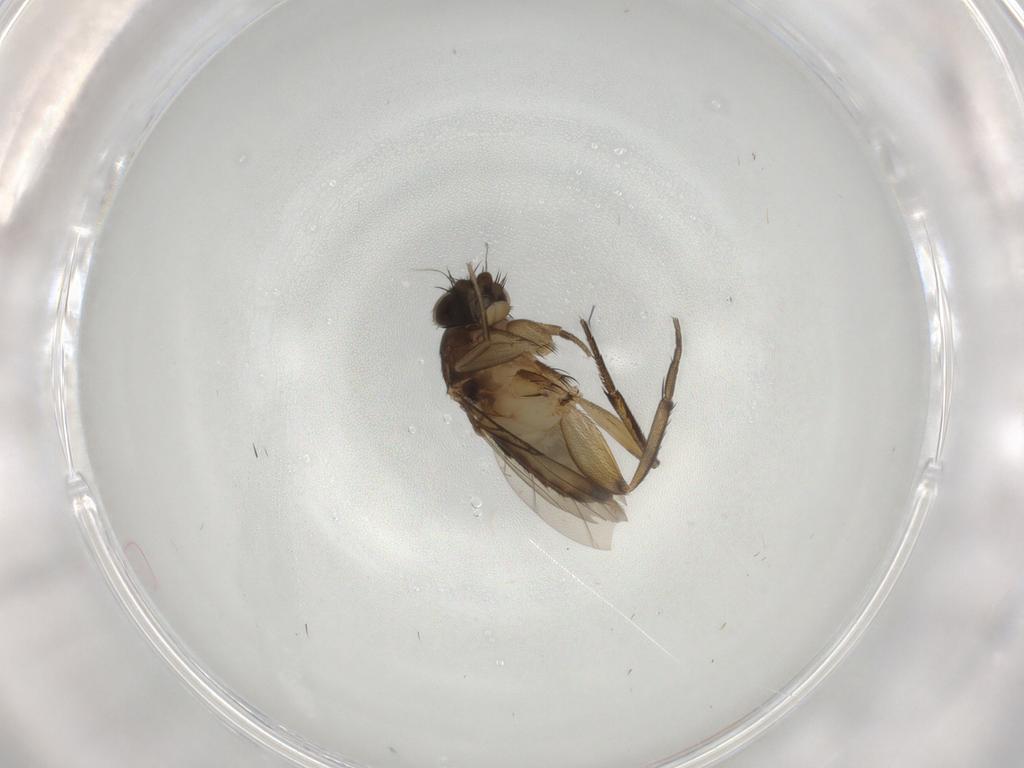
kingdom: Animalia
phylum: Arthropoda
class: Insecta
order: Diptera
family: Phoridae
